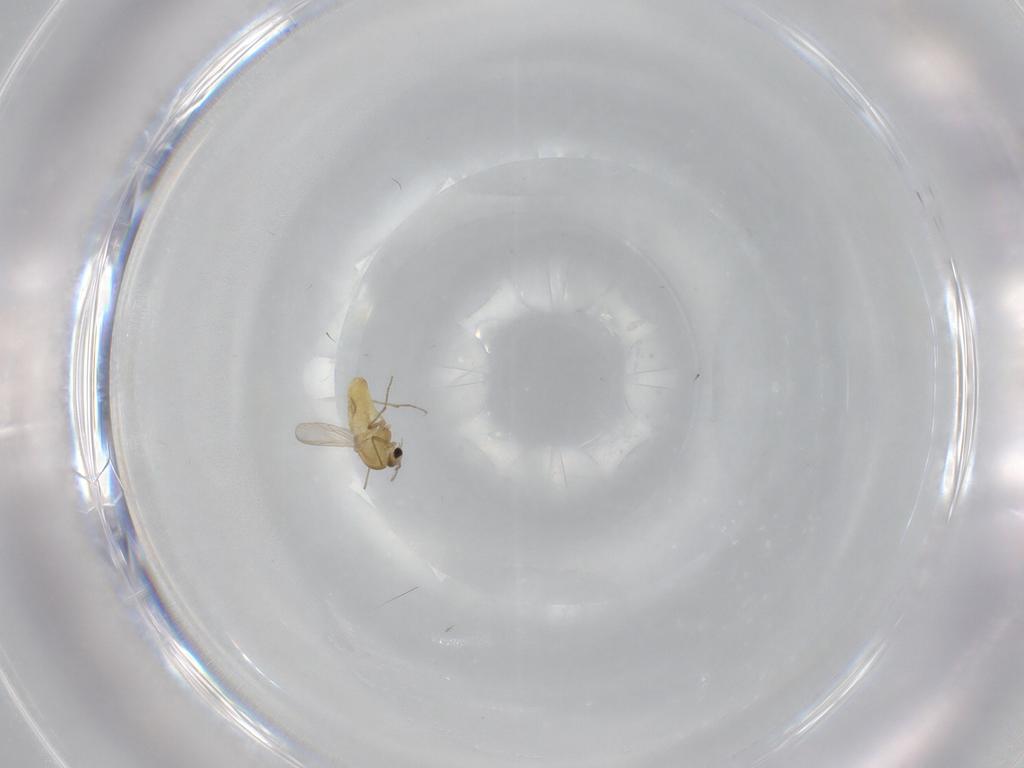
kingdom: Animalia
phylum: Arthropoda
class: Insecta
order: Diptera
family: Chironomidae
